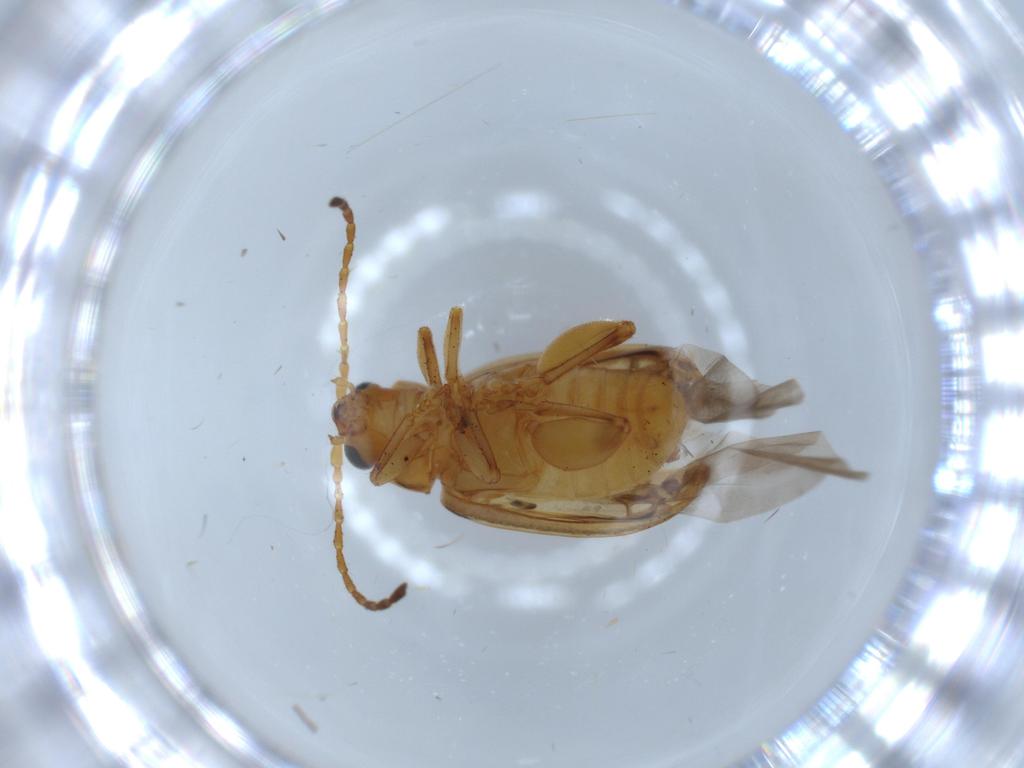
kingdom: Animalia
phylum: Arthropoda
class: Insecta
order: Coleoptera
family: Chrysomelidae
